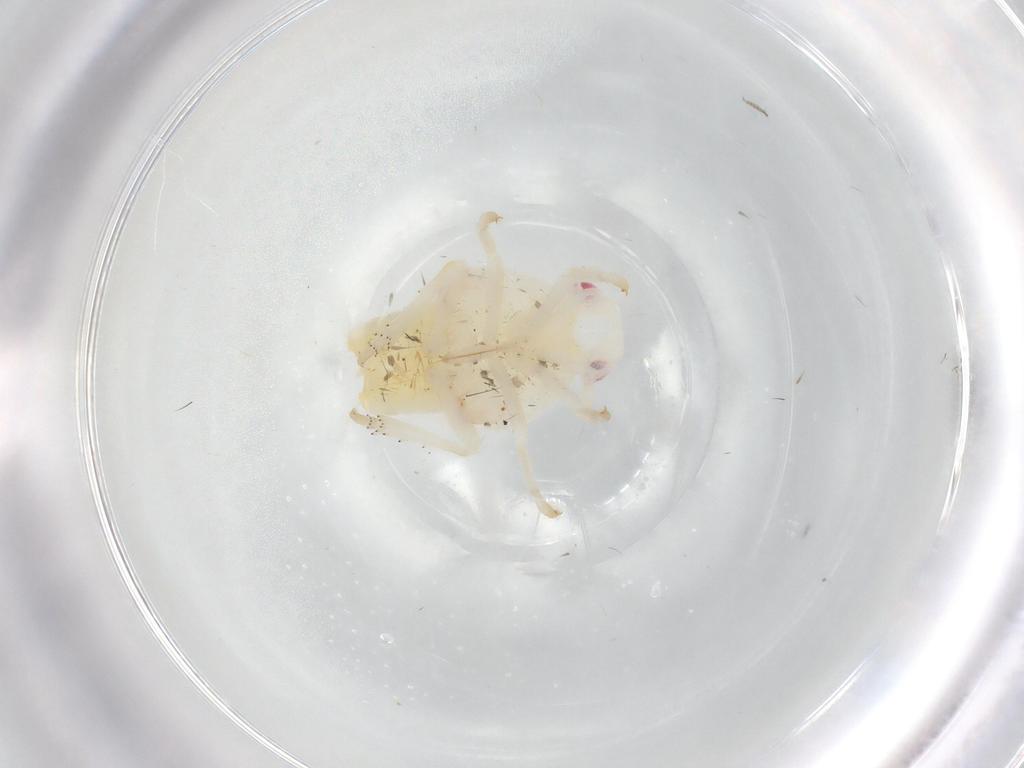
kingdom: Animalia
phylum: Arthropoda
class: Insecta
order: Hemiptera
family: Flatidae
